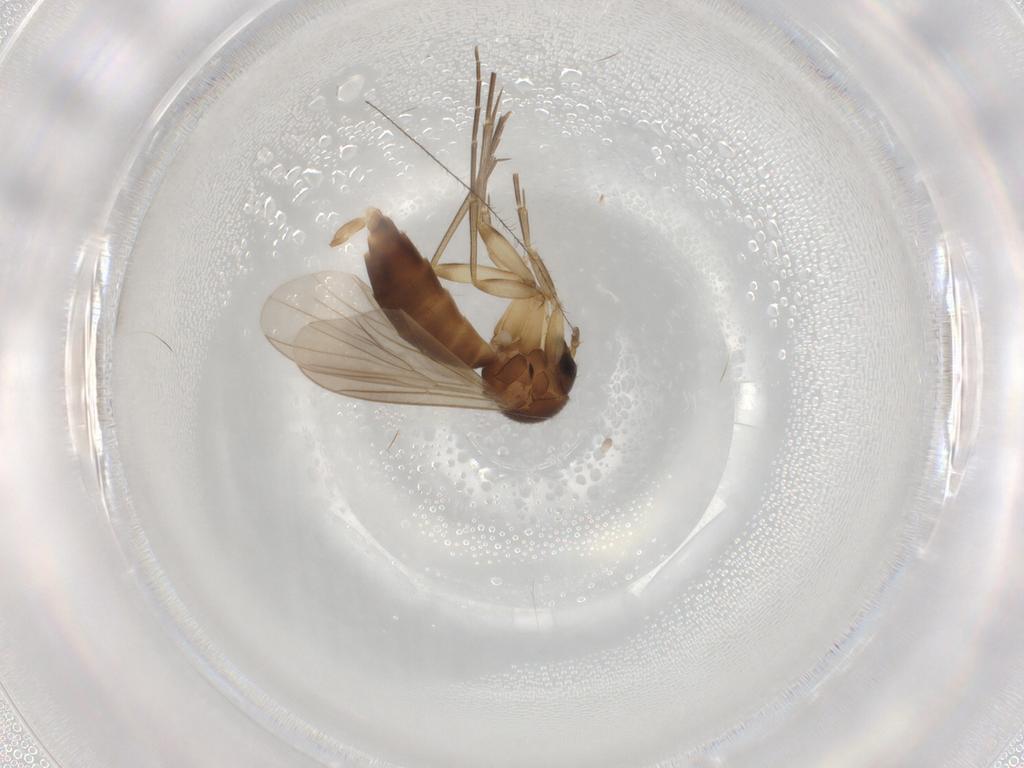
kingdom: Animalia
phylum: Arthropoda
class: Insecta
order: Diptera
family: Mycetophilidae
